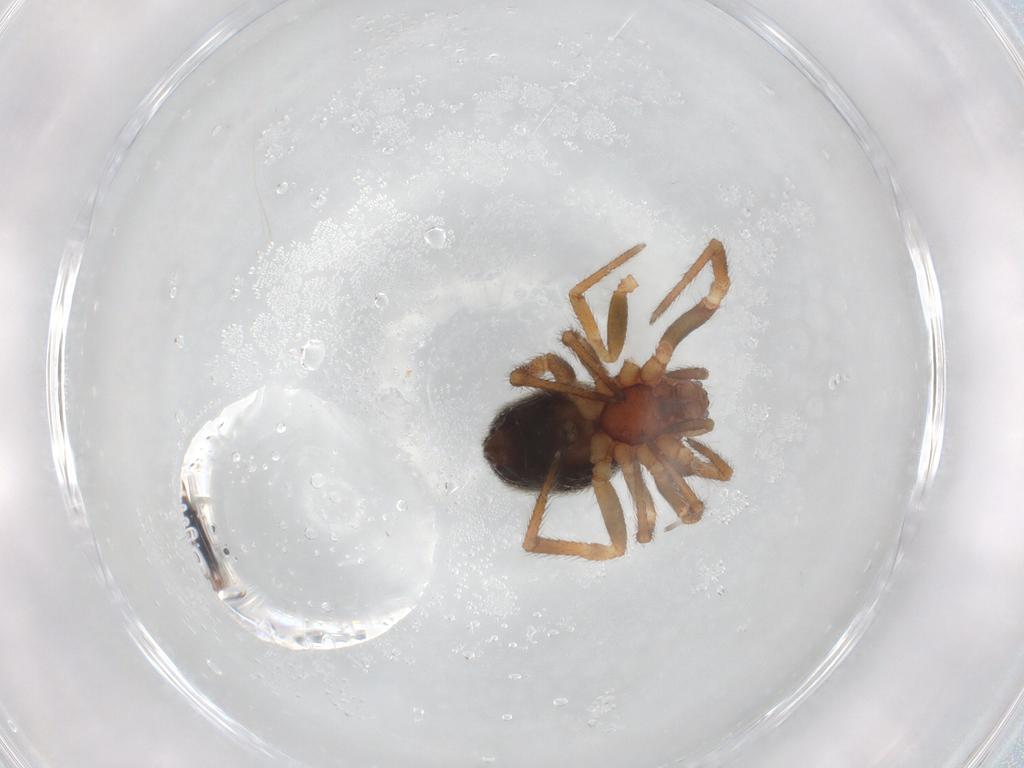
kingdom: Animalia
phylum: Arthropoda
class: Arachnida
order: Araneae
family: Theridiidae
